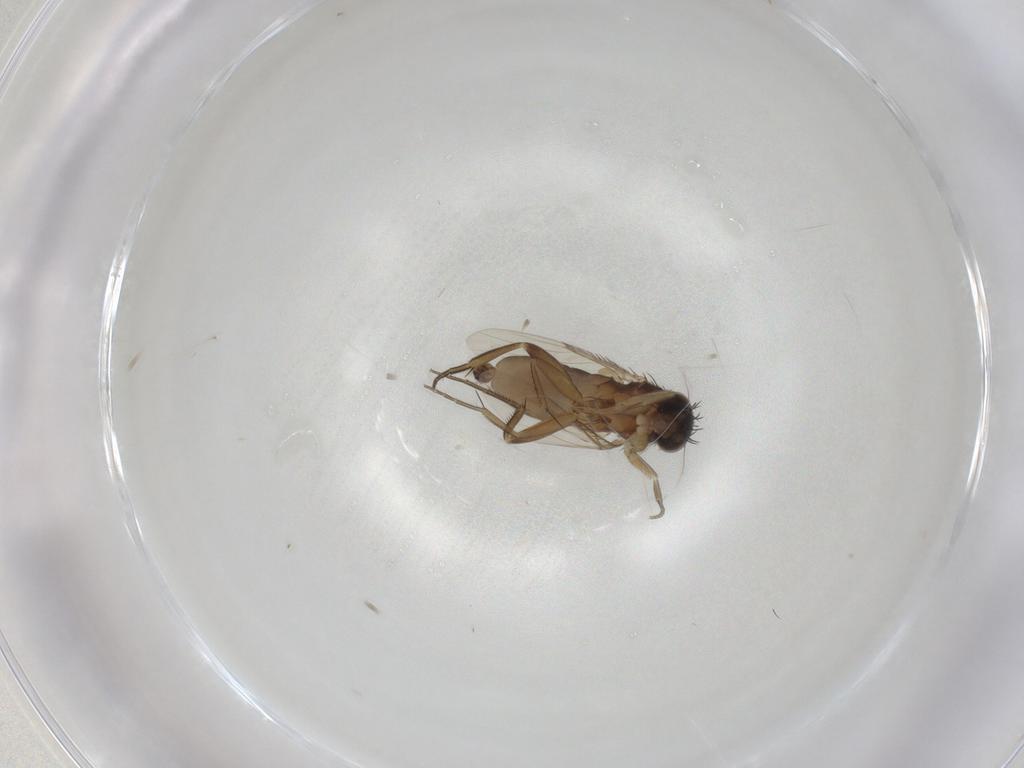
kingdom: Animalia
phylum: Arthropoda
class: Insecta
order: Diptera
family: Phoridae
